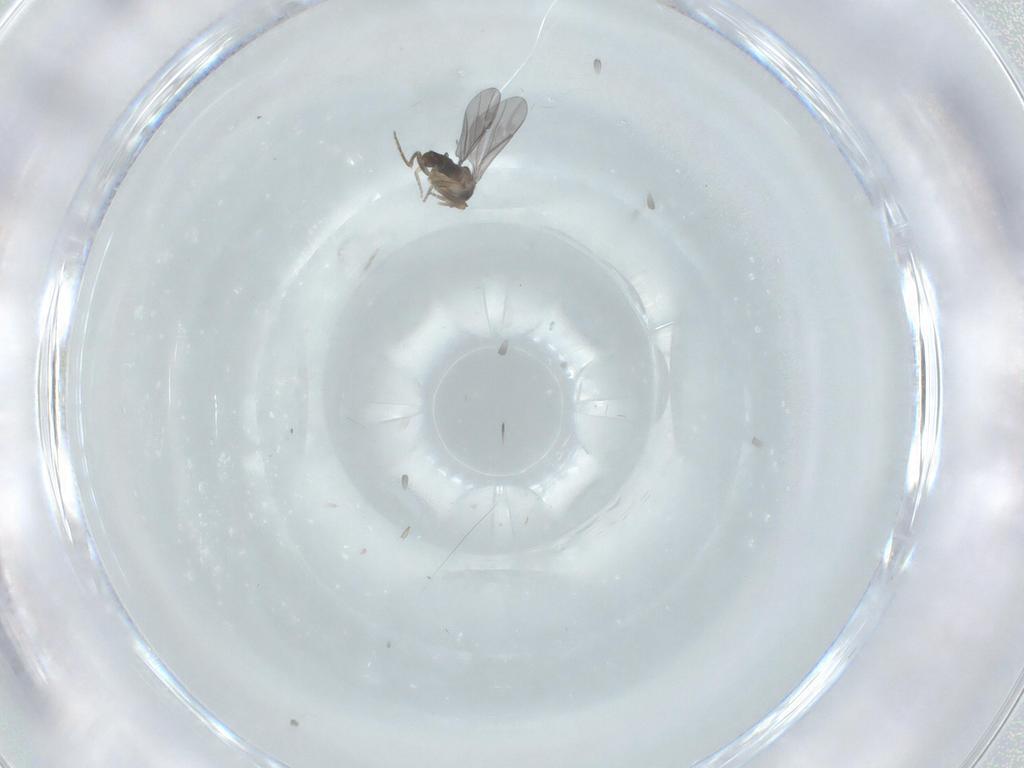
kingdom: Animalia
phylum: Arthropoda
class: Insecta
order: Diptera
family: Phoridae
